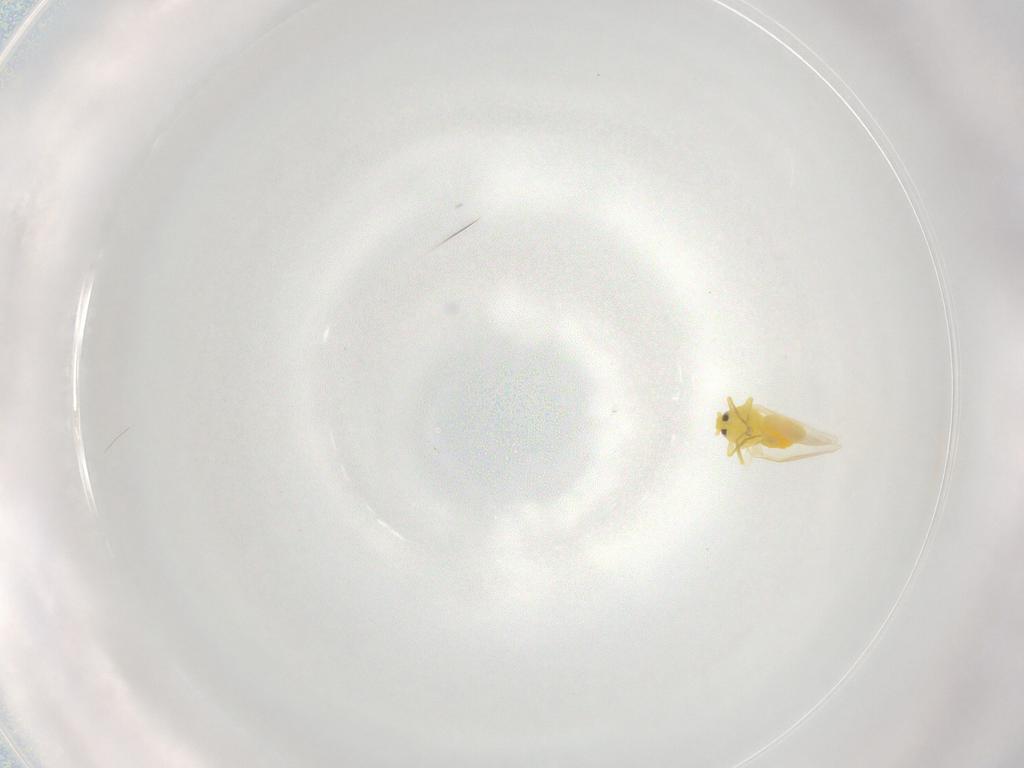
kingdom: Animalia
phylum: Arthropoda
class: Insecta
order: Hemiptera
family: Aleyrodidae
